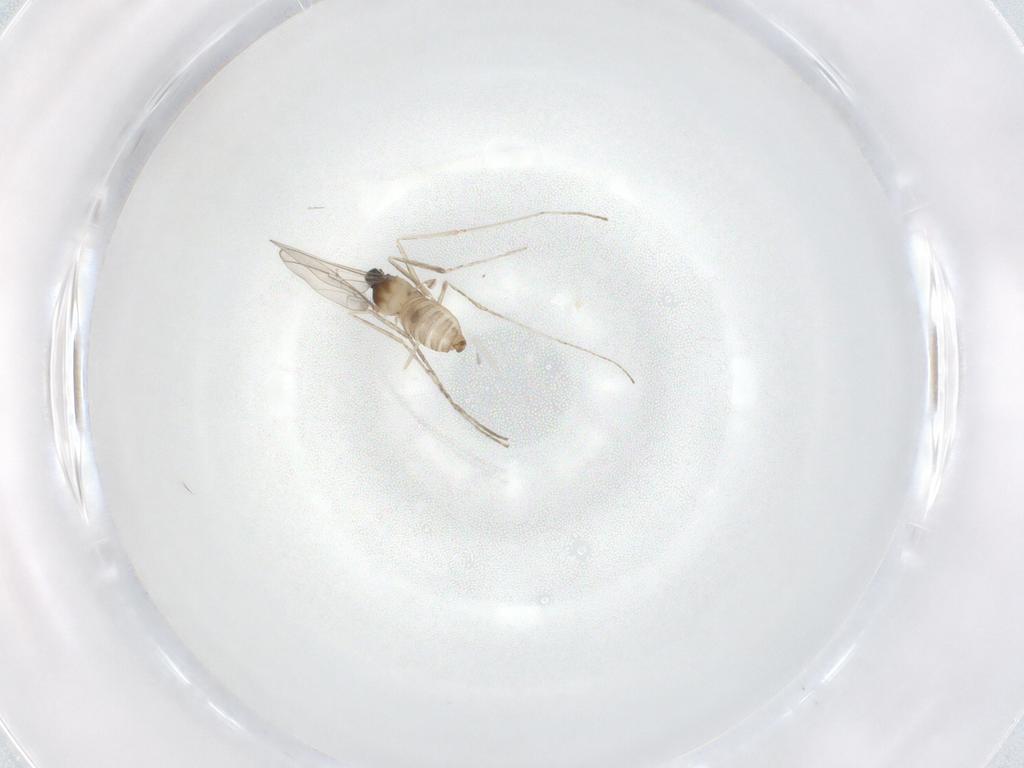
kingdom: Animalia
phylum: Arthropoda
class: Insecta
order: Diptera
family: Cecidomyiidae
